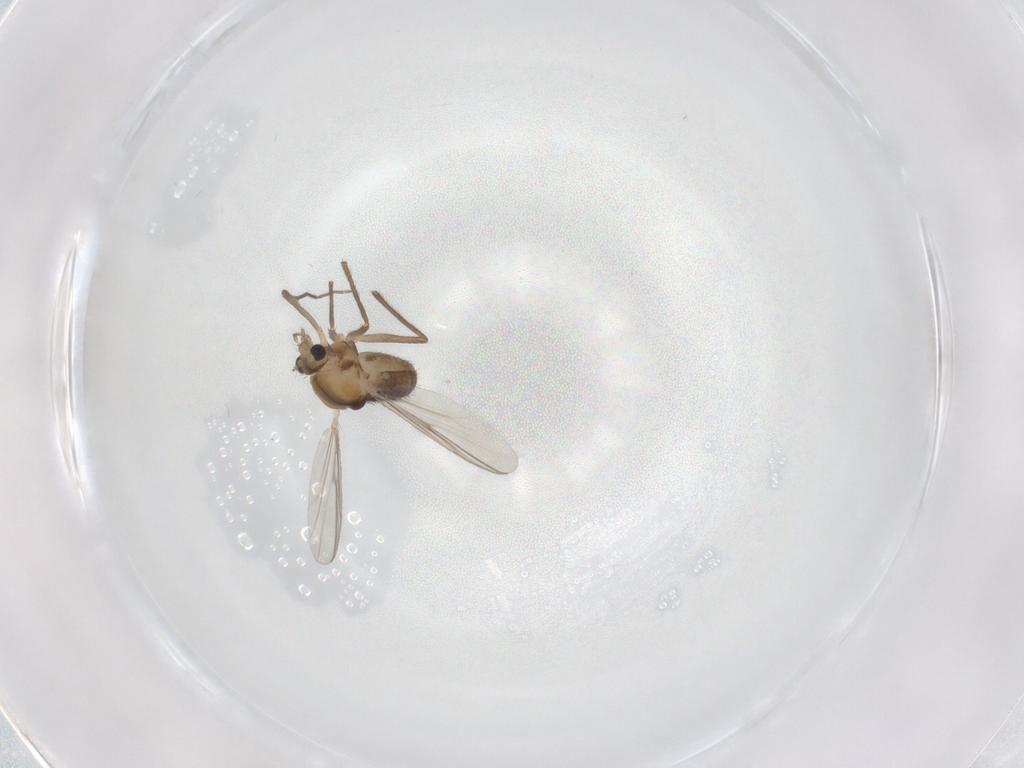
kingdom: Animalia
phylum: Arthropoda
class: Insecta
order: Diptera
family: Chironomidae
